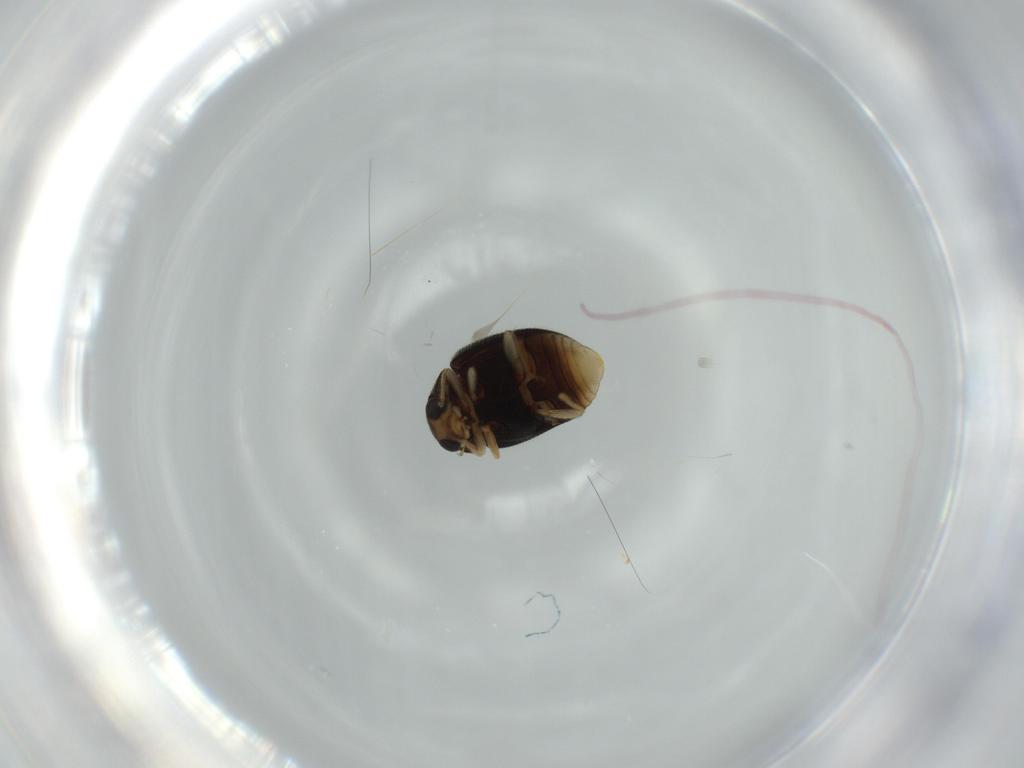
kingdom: Animalia
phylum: Arthropoda
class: Insecta
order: Coleoptera
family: Coccinellidae
